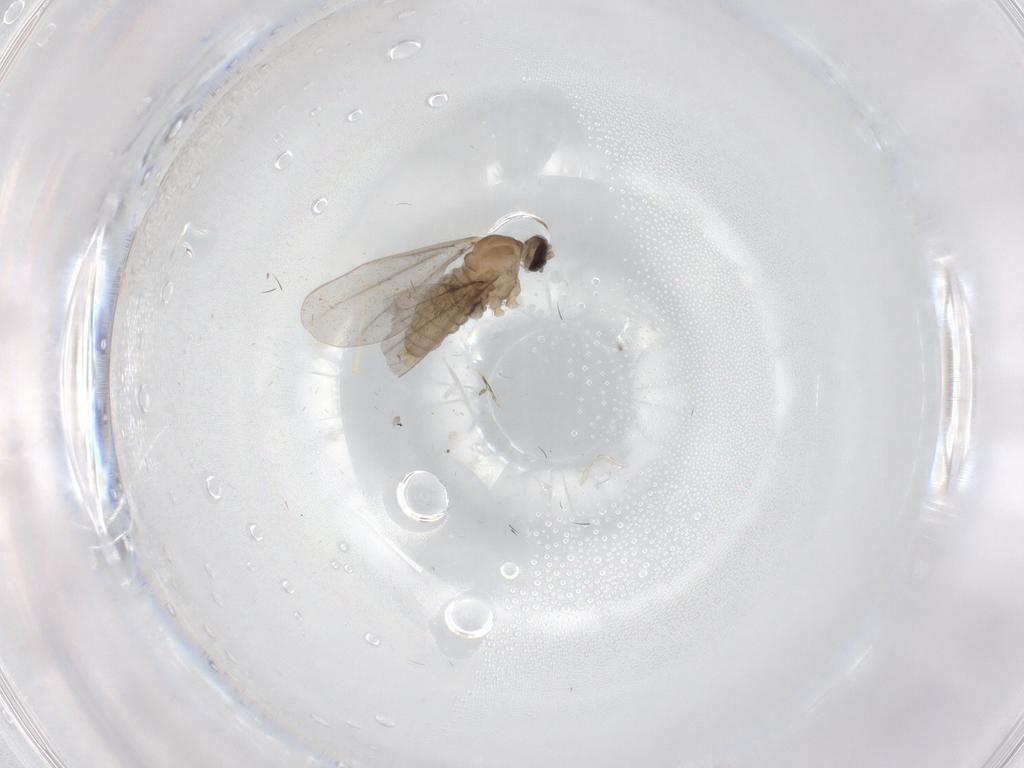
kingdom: Animalia
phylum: Arthropoda
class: Insecta
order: Diptera
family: Cecidomyiidae
